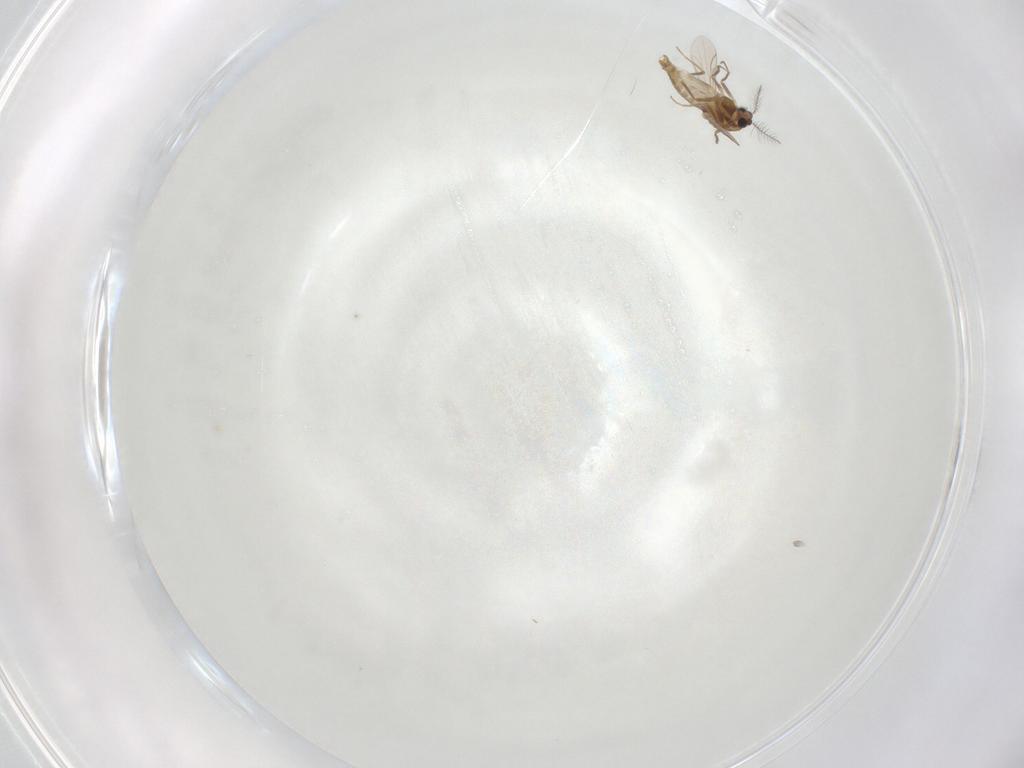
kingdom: Animalia
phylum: Arthropoda
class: Insecta
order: Diptera
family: Chironomidae
